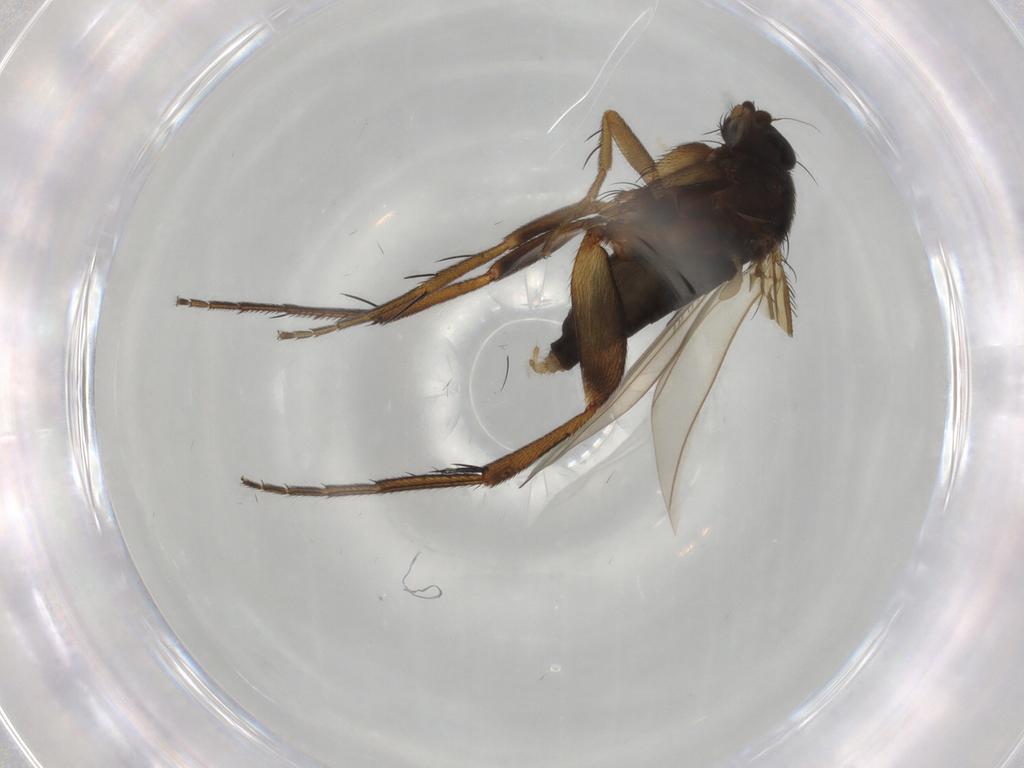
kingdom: Animalia
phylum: Arthropoda
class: Insecta
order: Diptera
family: Phoridae
